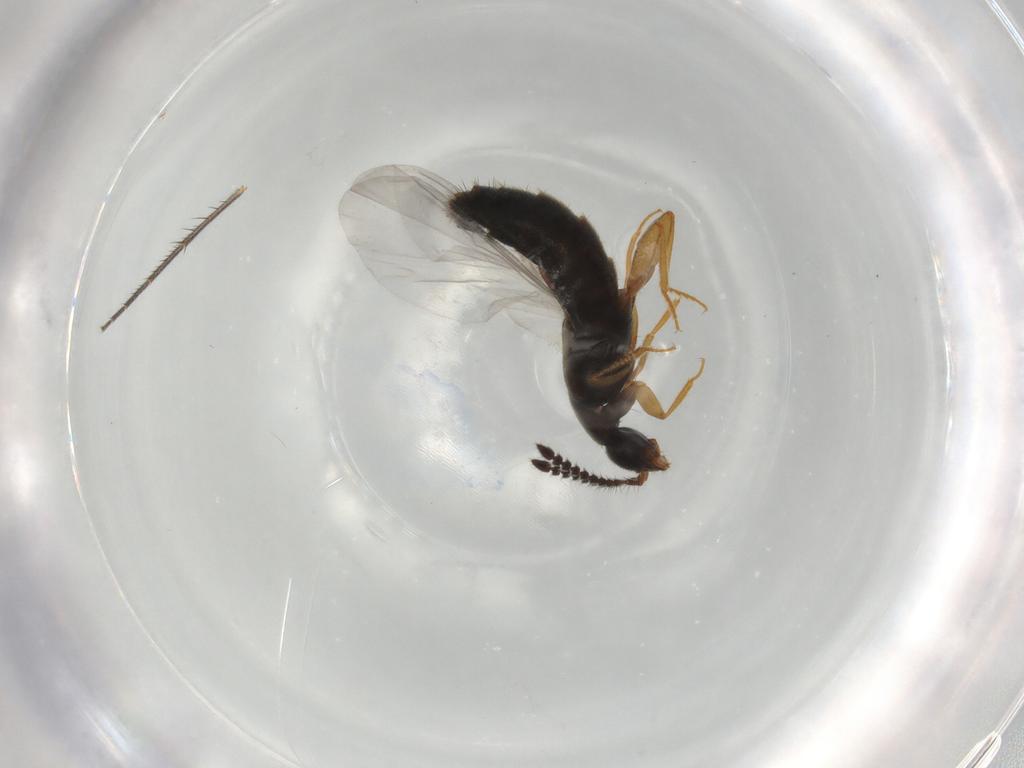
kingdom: Animalia
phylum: Arthropoda
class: Insecta
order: Coleoptera
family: Staphylinidae
